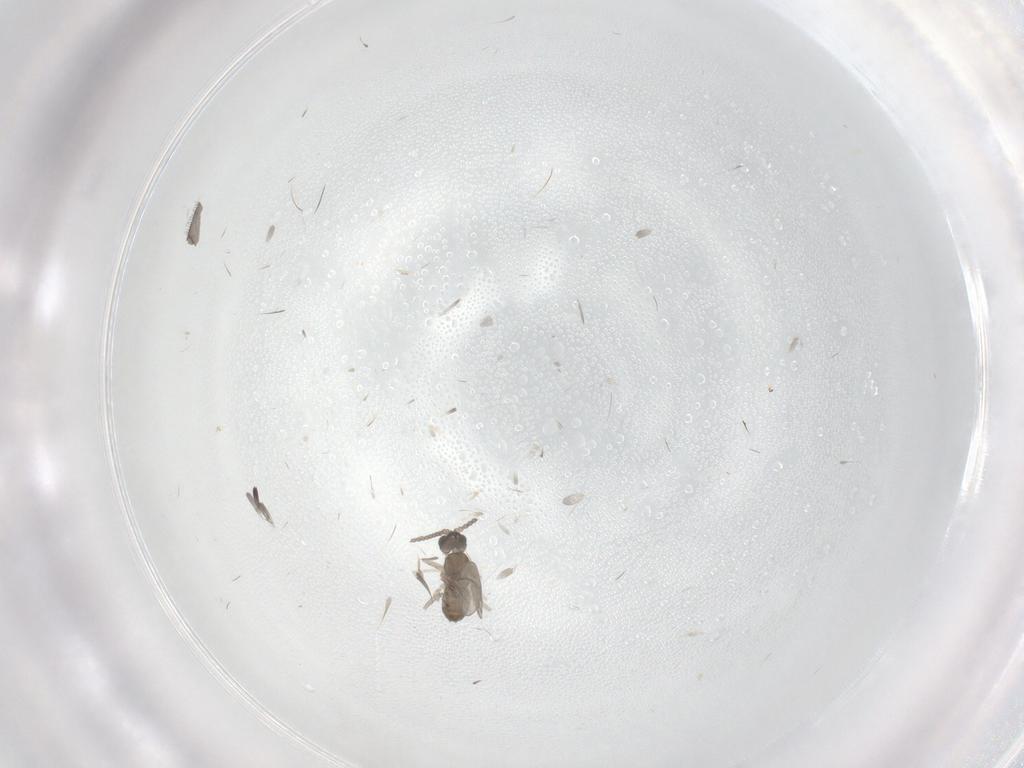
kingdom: Animalia
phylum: Arthropoda
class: Insecta
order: Diptera
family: Cecidomyiidae
